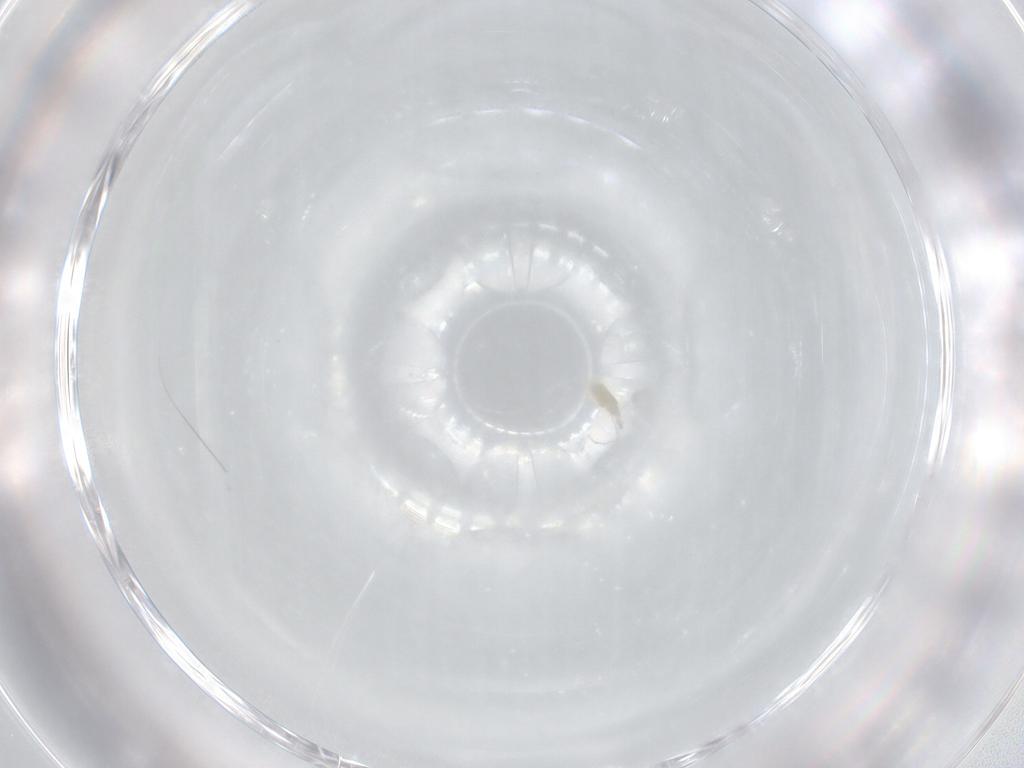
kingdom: Animalia
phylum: Arthropoda
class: Arachnida
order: Trombidiformes
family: Eupodidae
